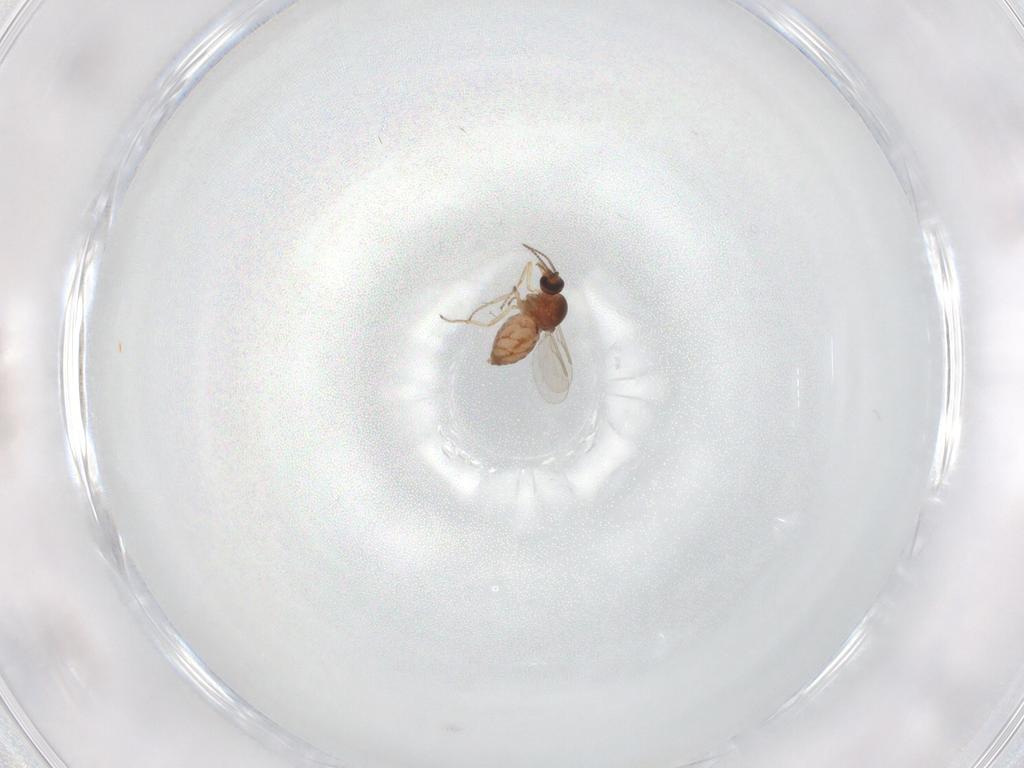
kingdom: Animalia
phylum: Arthropoda
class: Insecta
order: Diptera
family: Ceratopogonidae
